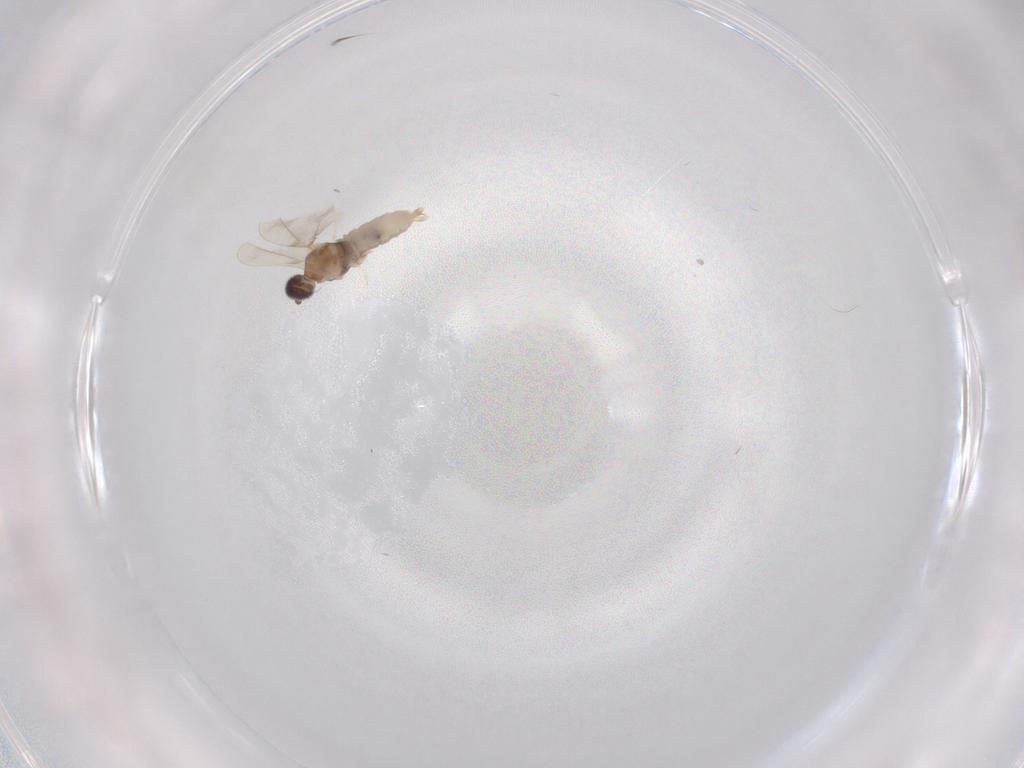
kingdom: Animalia
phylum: Arthropoda
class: Insecta
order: Diptera
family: Cecidomyiidae
